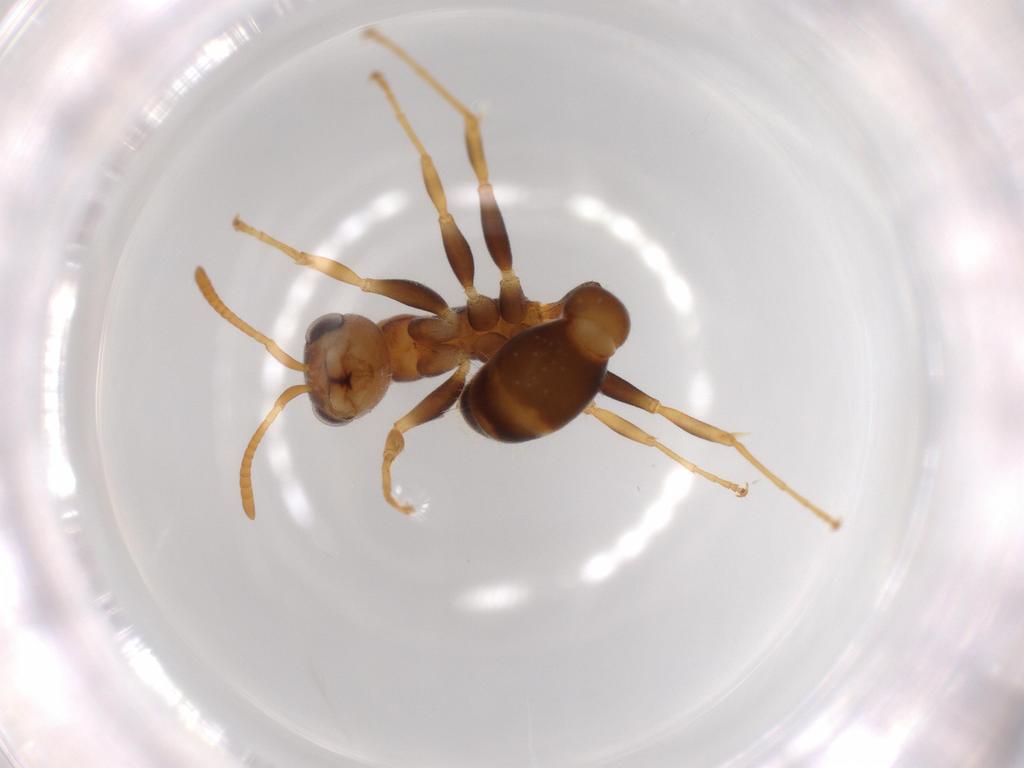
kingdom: Animalia
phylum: Arthropoda
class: Insecta
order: Hymenoptera
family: Formicidae
